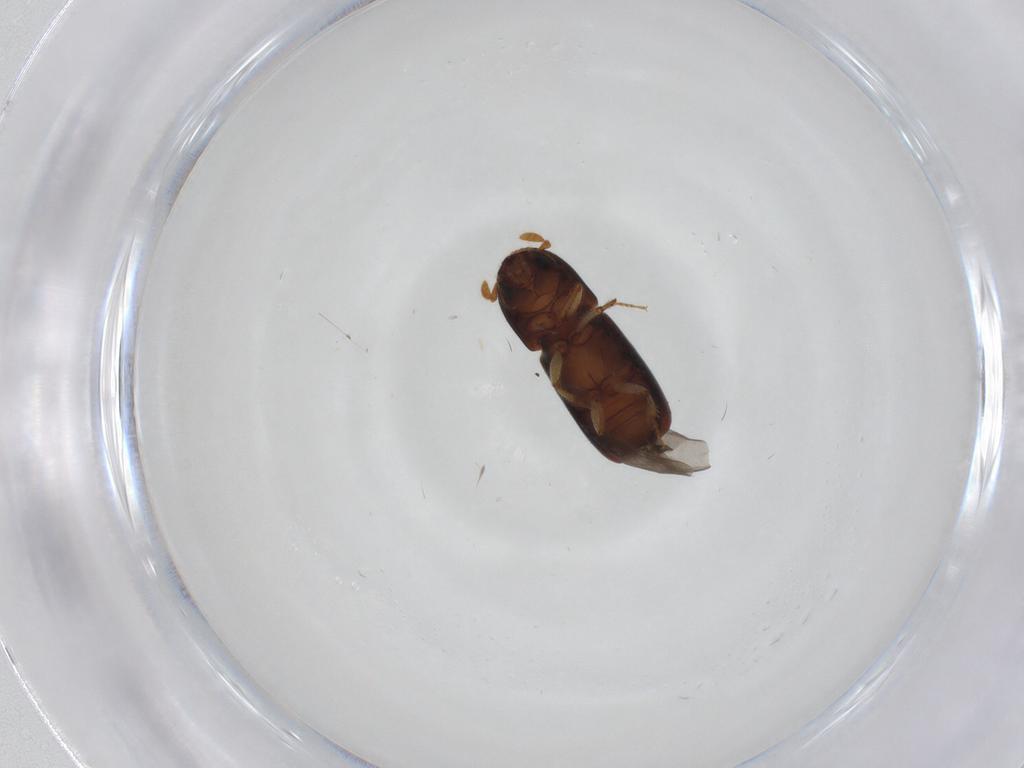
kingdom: Animalia
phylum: Arthropoda
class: Insecta
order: Coleoptera
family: Curculionidae
